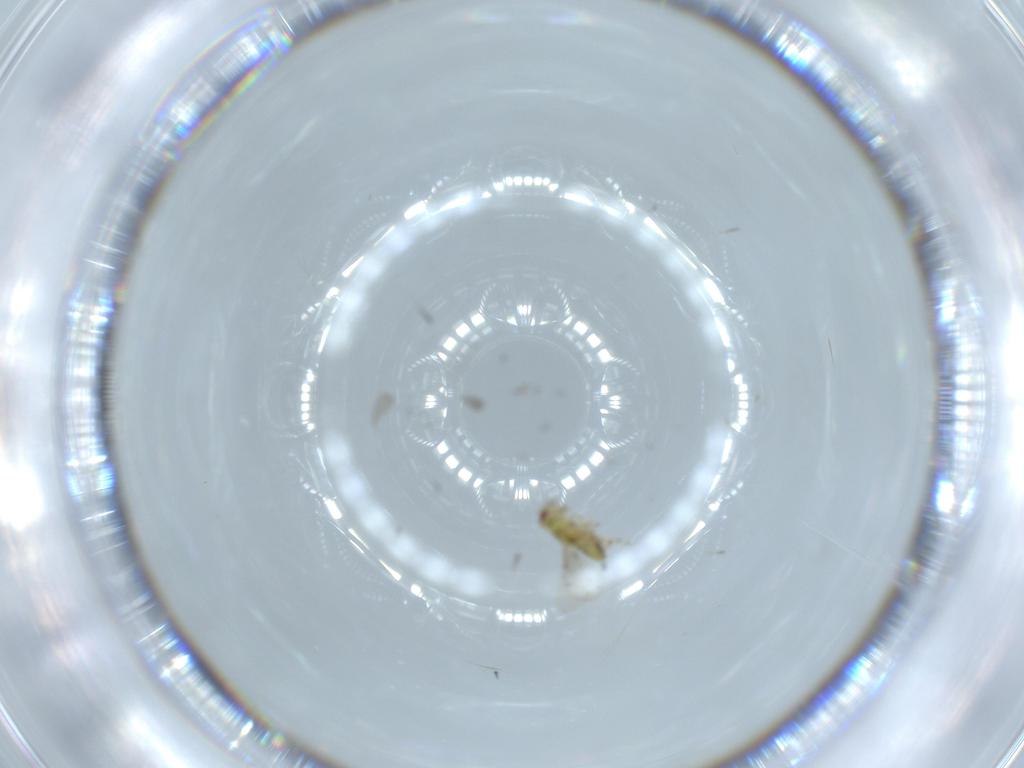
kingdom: Animalia
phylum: Arthropoda
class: Insecta
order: Hymenoptera
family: Eulophidae
